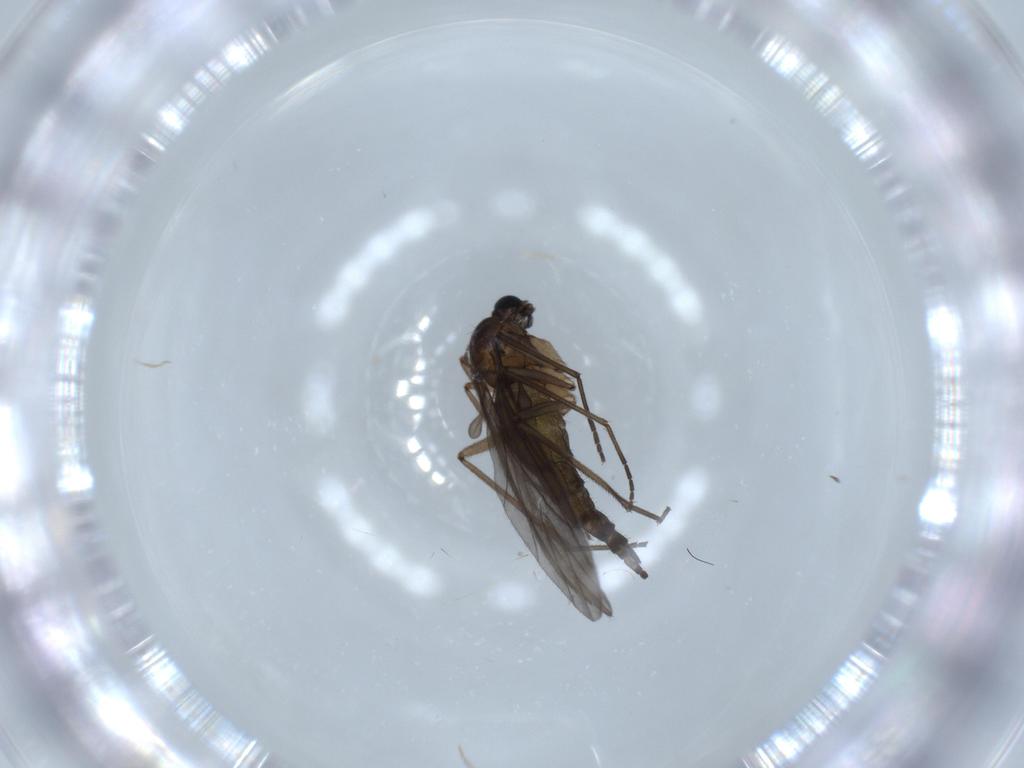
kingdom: Animalia
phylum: Arthropoda
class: Insecta
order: Diptera
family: Sciaridae
